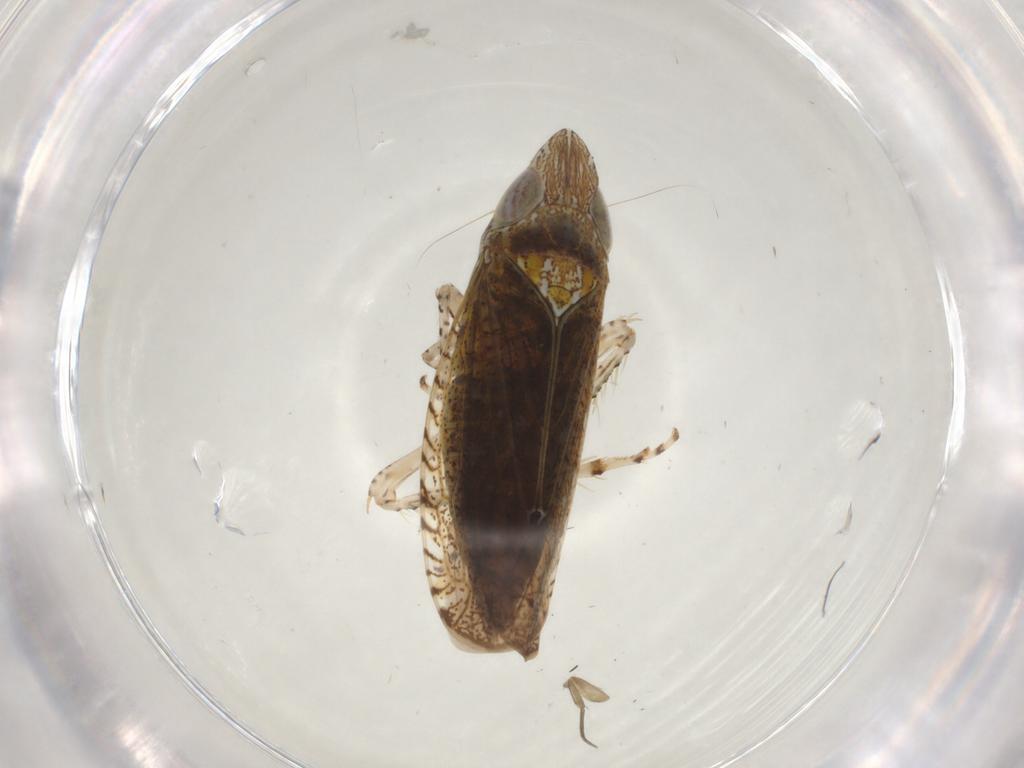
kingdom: Animalia
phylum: Arthropoda
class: Insecta
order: Hemiptera
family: Cicadellidae
